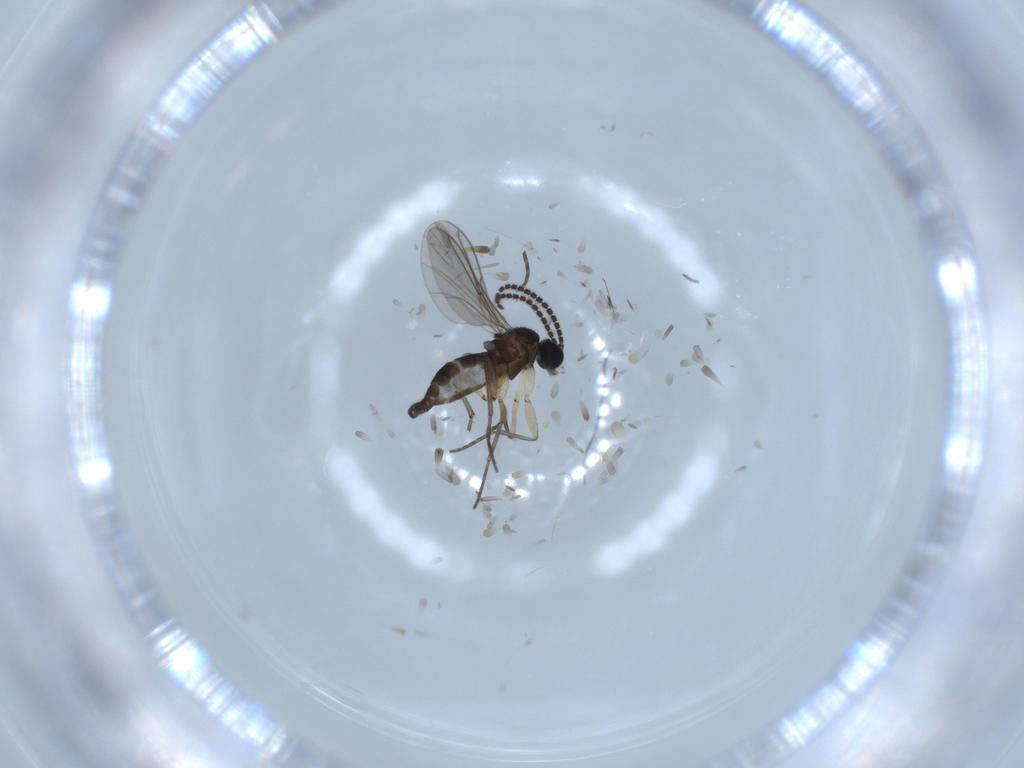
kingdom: Animalia
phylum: Arthropoda
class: Insecta
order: Diptera
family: Sciaridae
